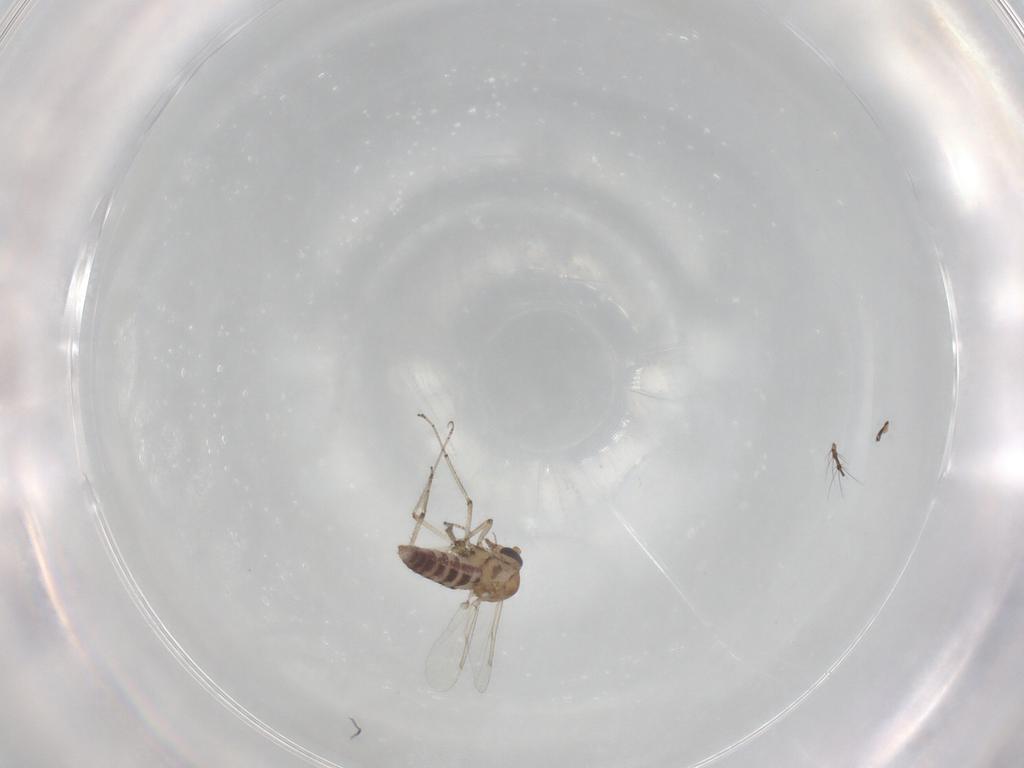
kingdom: Animalia
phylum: Arthropoda
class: Insecta
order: Diptera
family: Chironomidae
